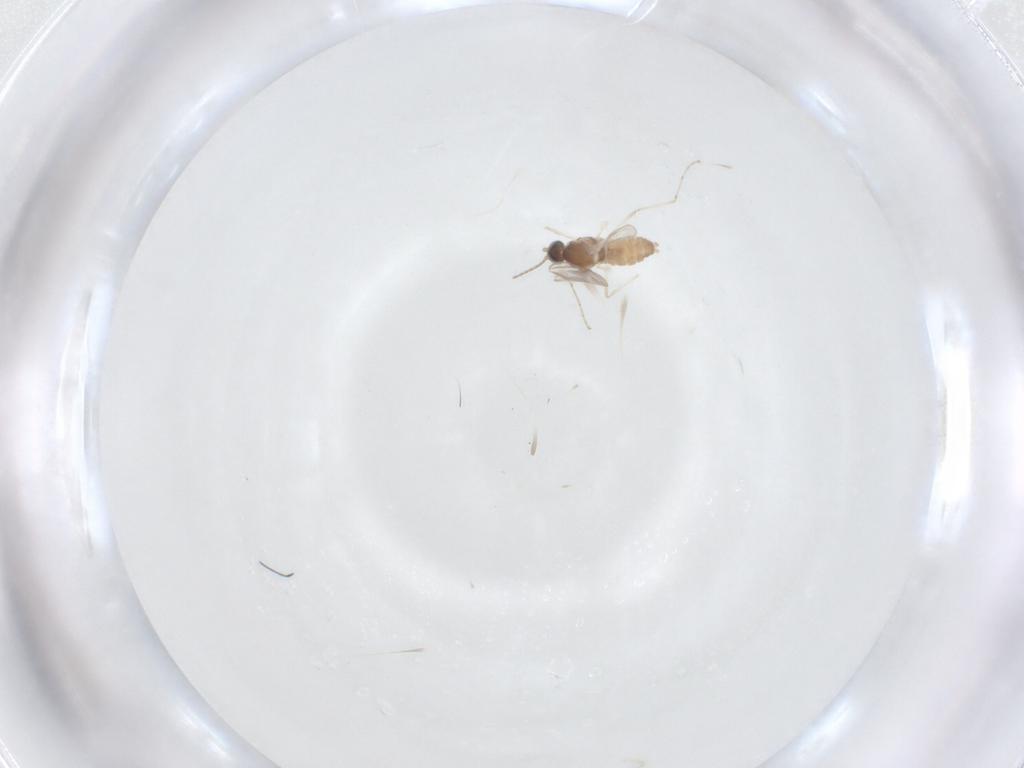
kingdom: Animalia
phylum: Arthropoda
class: Insecta
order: Diptera
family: Cecidomyiidae
